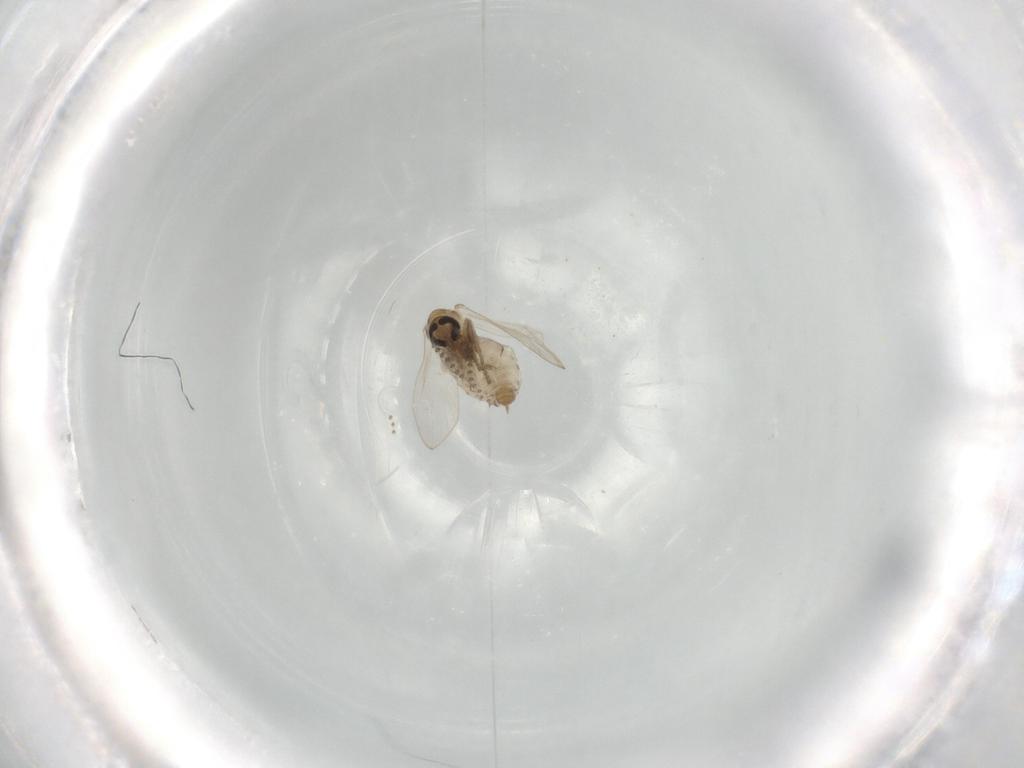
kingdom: Animalia
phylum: Arthropoda
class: Insecta
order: Diptera
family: Psychodidae
